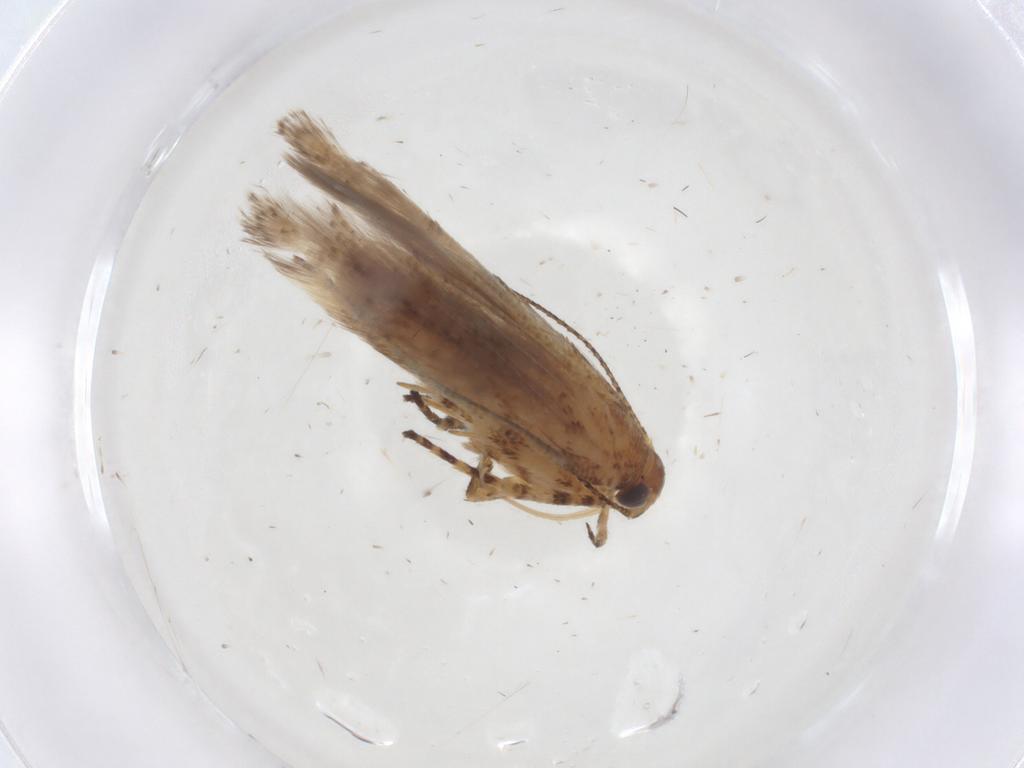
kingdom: Animalia
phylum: Arthropoda
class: Insecta
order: Lepidoptera
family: Gelechiidae
